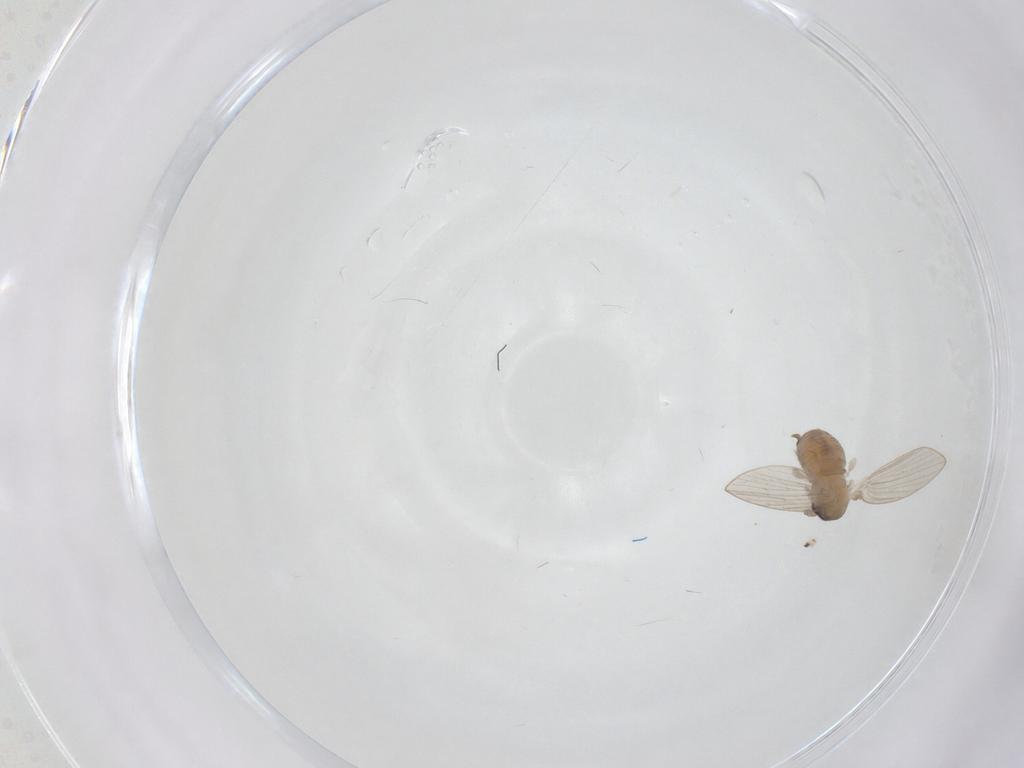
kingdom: Animalia
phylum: Arthropoda
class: Insecta
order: Diptera
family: Psychodidae
